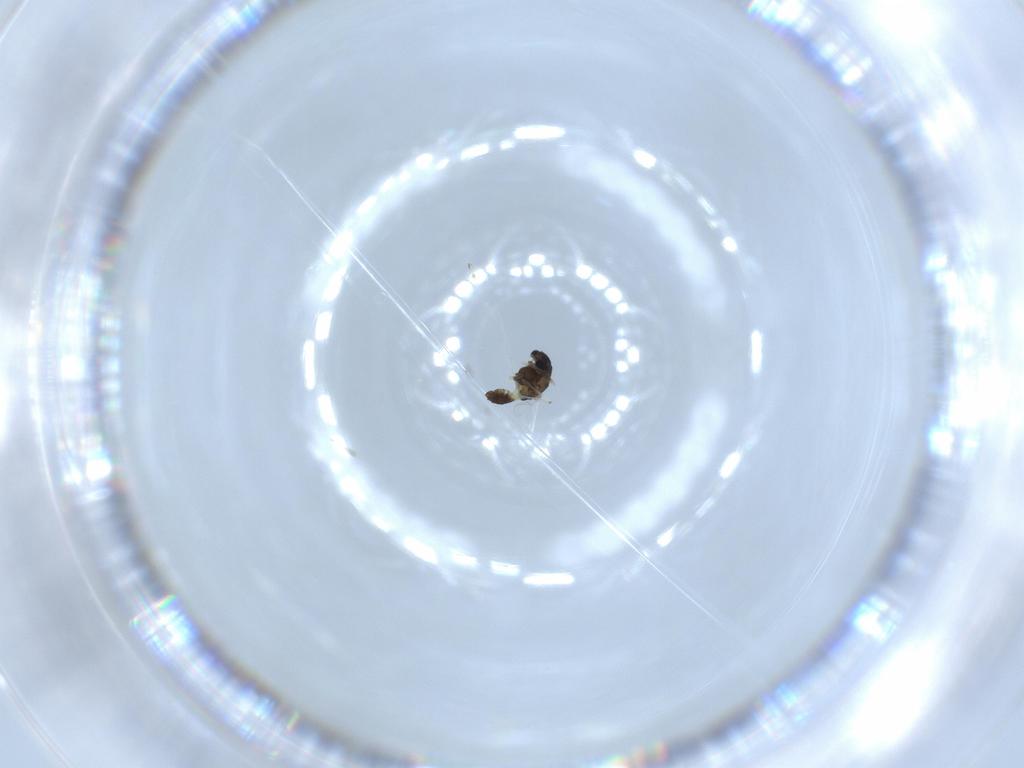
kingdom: Animalia
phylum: Arthropoda
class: Insecta
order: Diptera
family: Chironomidae
